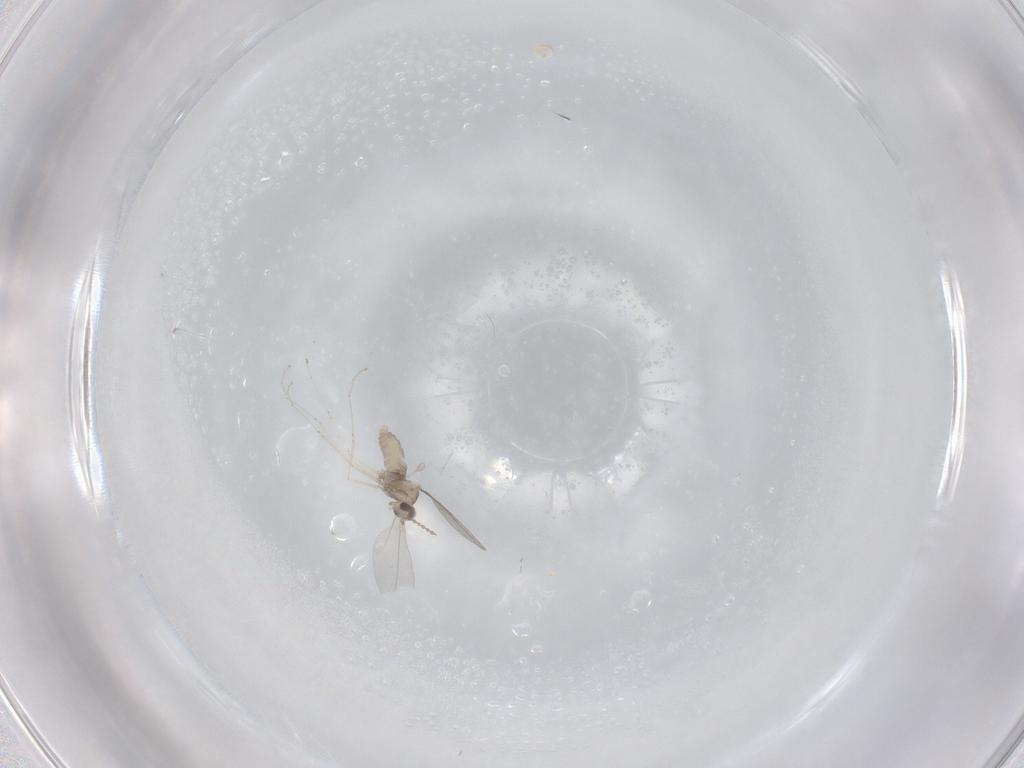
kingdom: Animalia
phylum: Arthropoda
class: Insecta
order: Diptera
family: Cecidomyiidae
